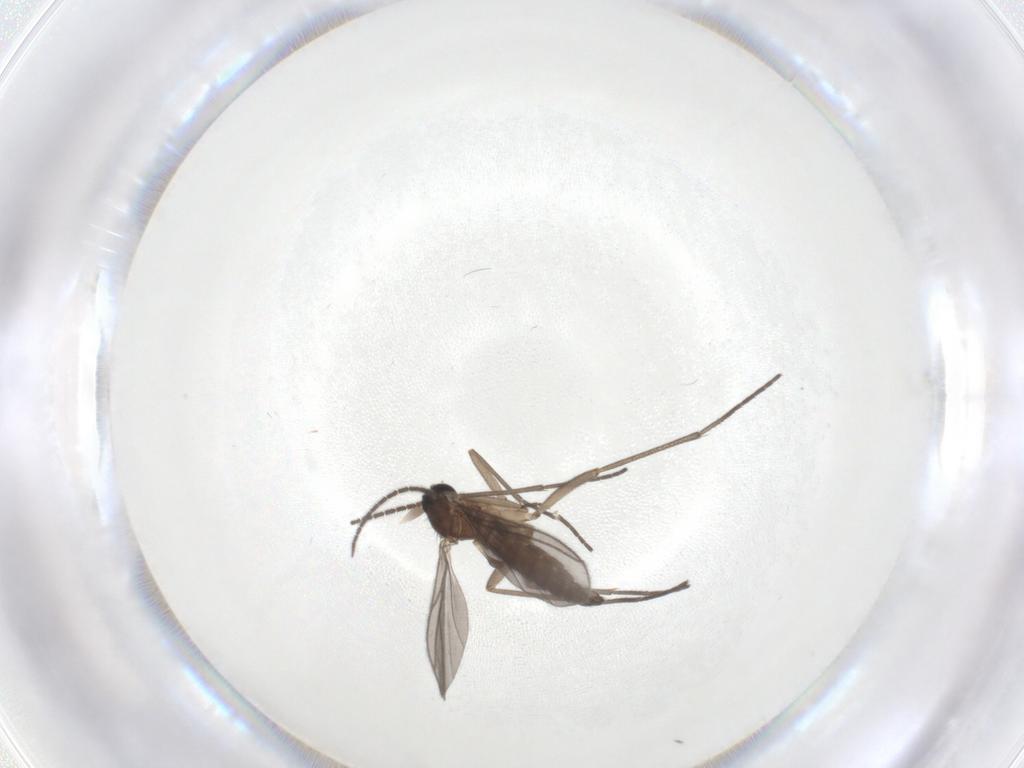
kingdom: Animalia
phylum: Arthropoda
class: Insecta
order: Diptera
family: Sciaridae
